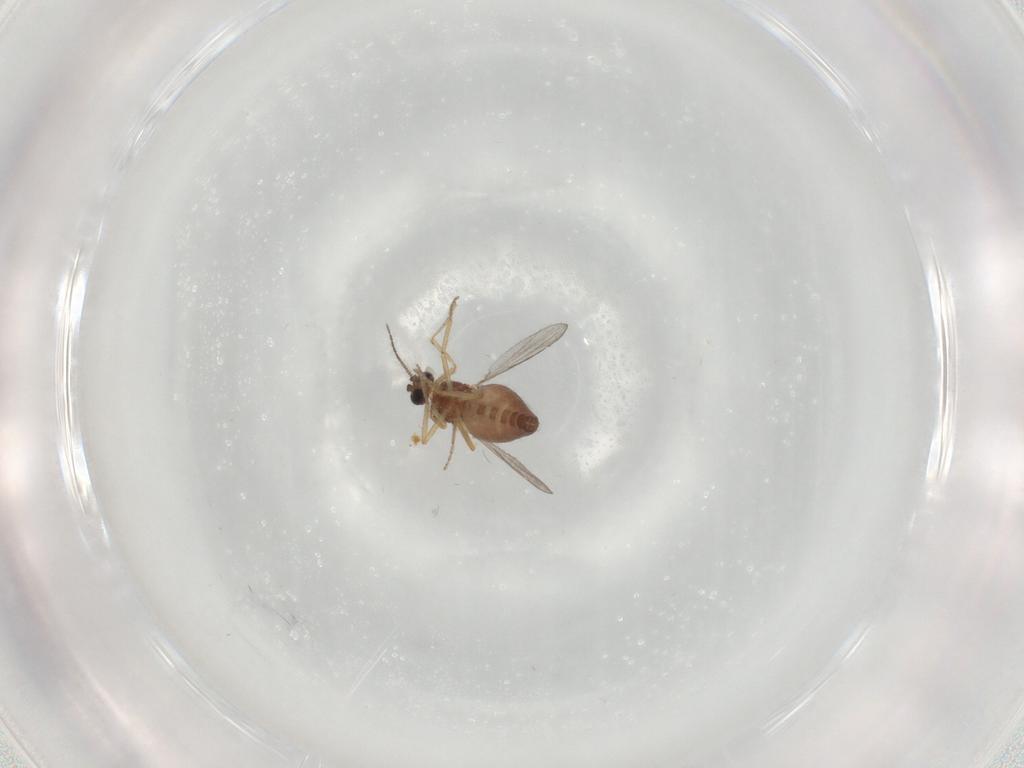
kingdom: Animalia
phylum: Arthropoda
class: Insecta
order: Diptera
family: Ceratopogonidae
